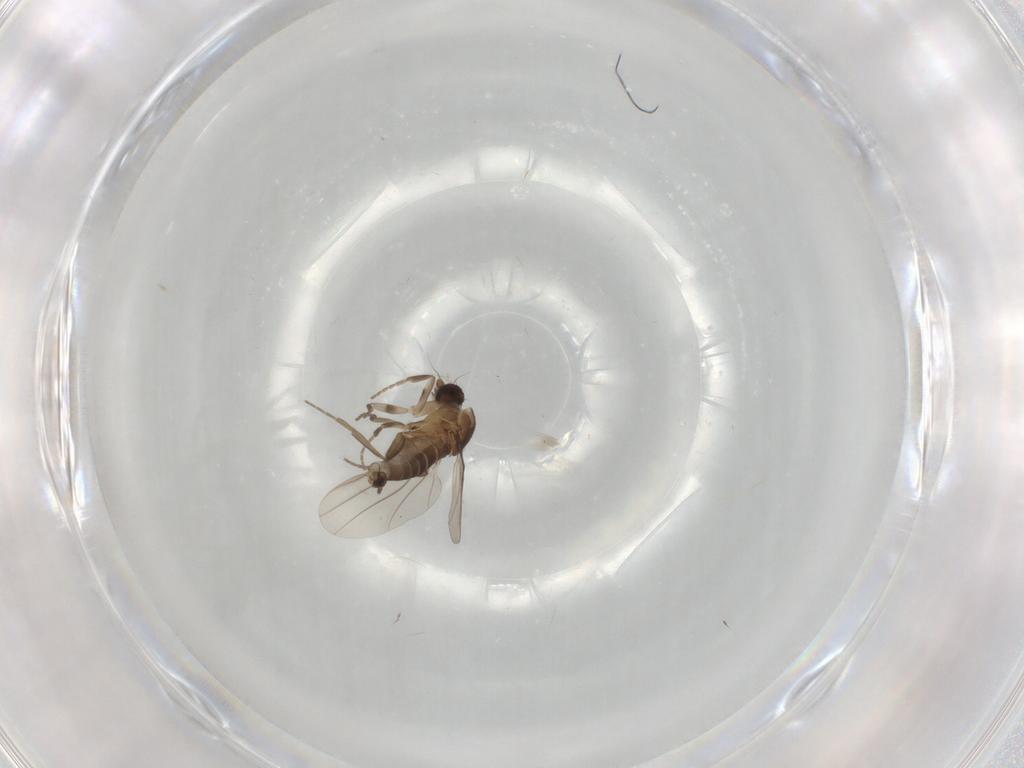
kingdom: Animalia
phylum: Arthropoda
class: Insecta
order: Diptera
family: Phoridae
